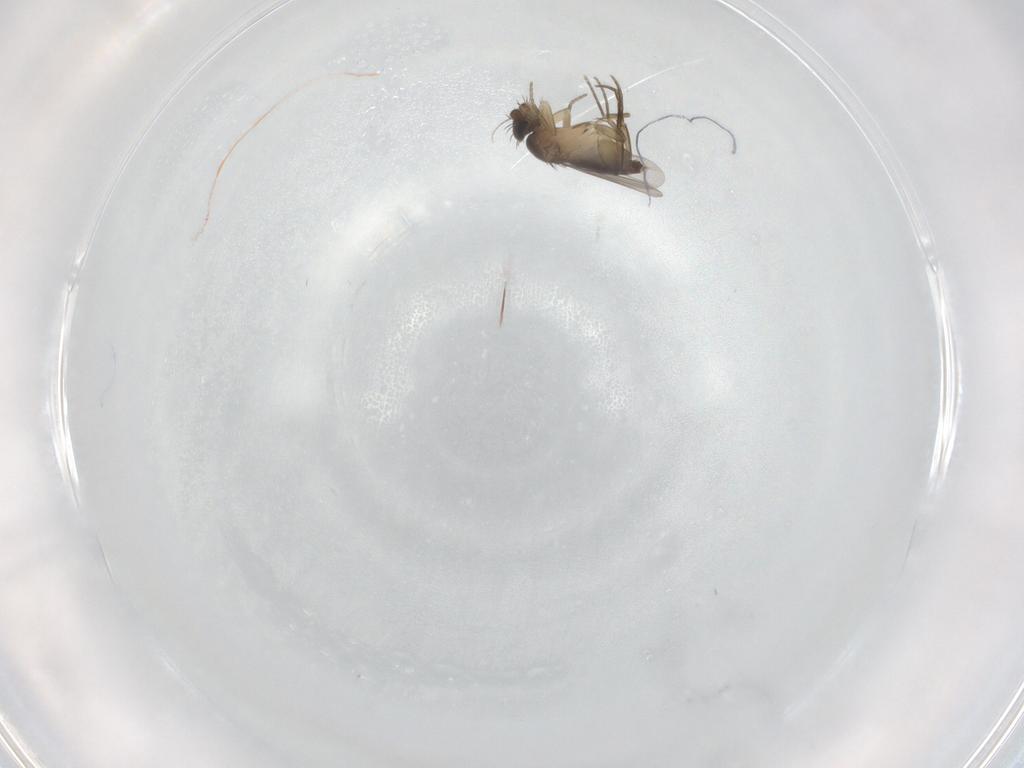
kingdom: Animalia
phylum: Arthropoda
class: Insecta
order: Diptera
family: Phoridae
